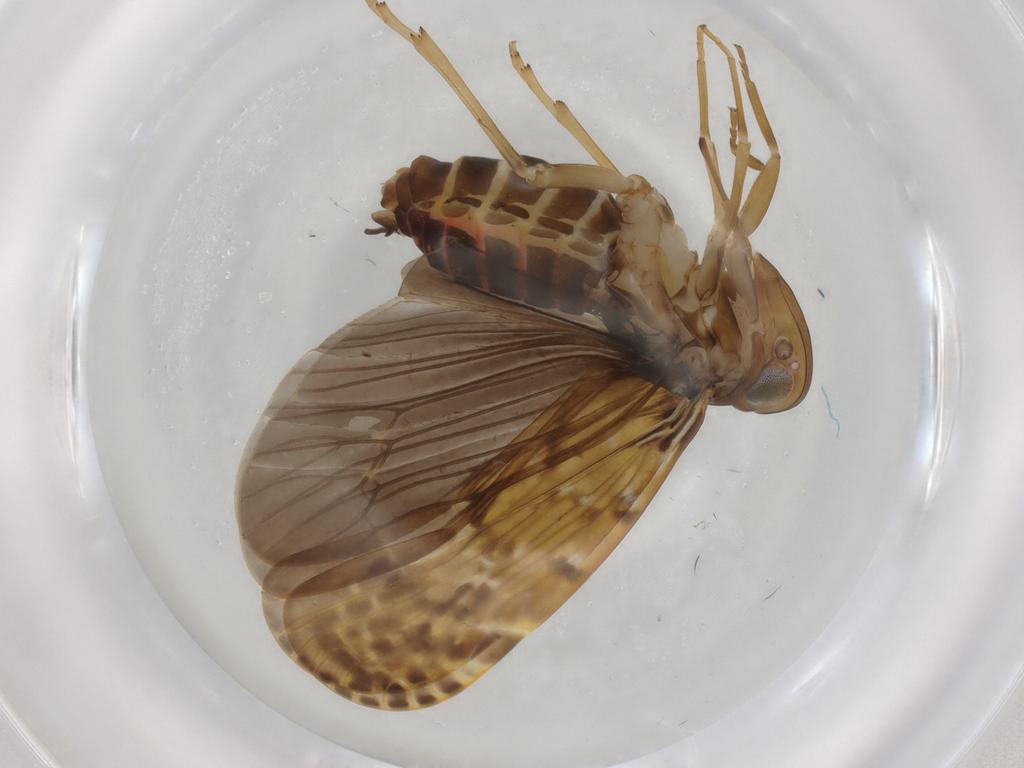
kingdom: Animalia
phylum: Arthropoda
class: Insecta
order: Hemiptera
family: Achilidae
